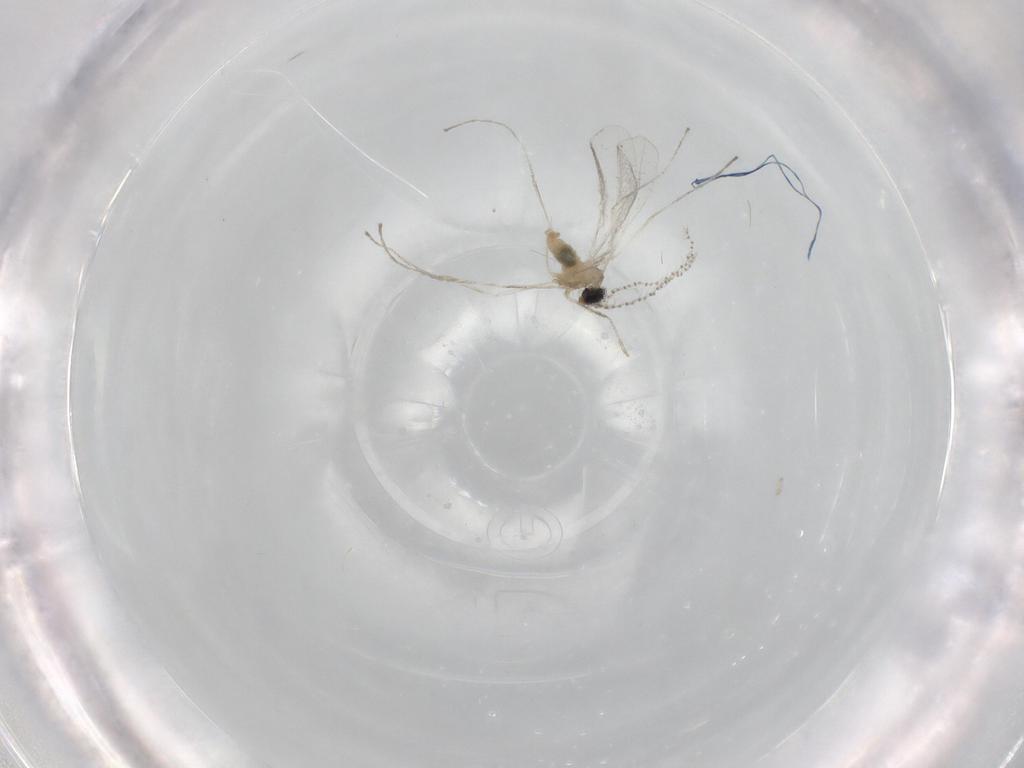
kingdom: Animalia
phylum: Arthropoda
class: Insecta
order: Diptera
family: Cecidomyiidae
